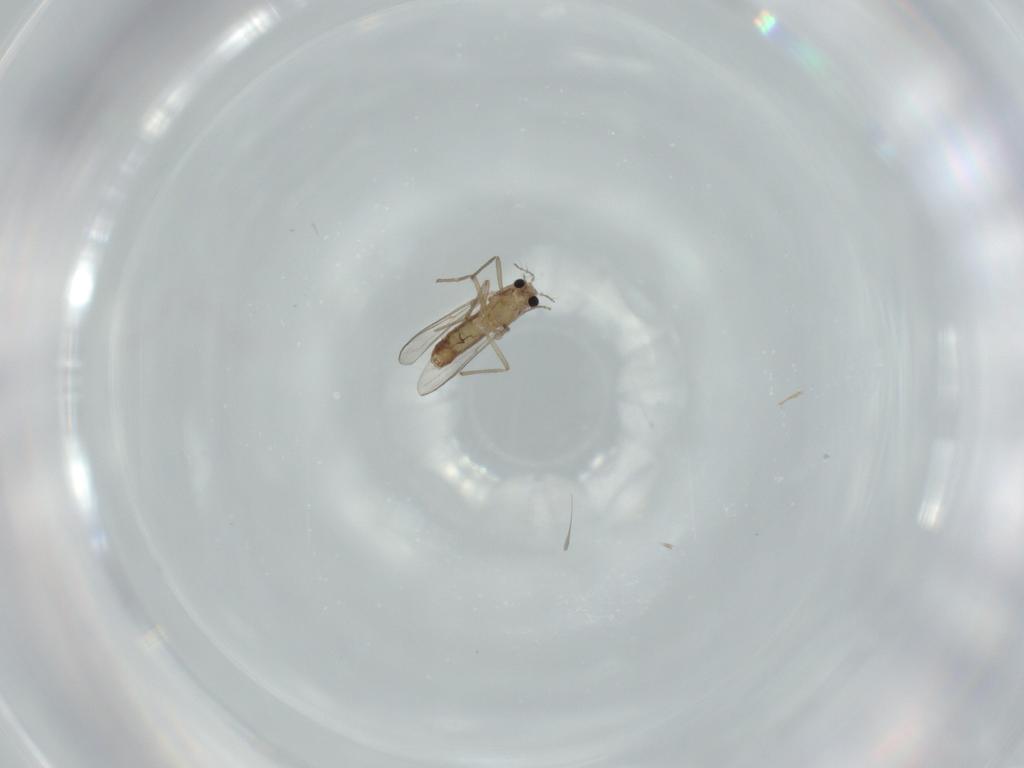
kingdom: Animalia
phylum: Arthropoda
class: Insecta
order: Diptera
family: Chironomidae
